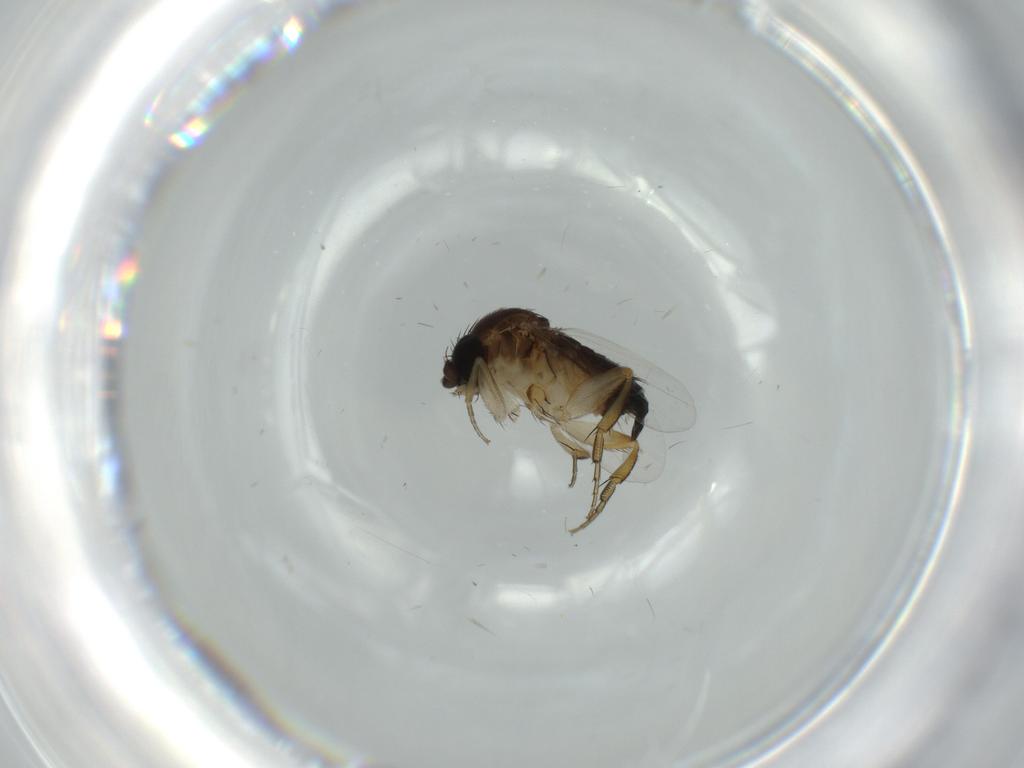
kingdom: Animalia
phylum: Arthropoda
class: Insecta
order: Diptera
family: Phoridae
